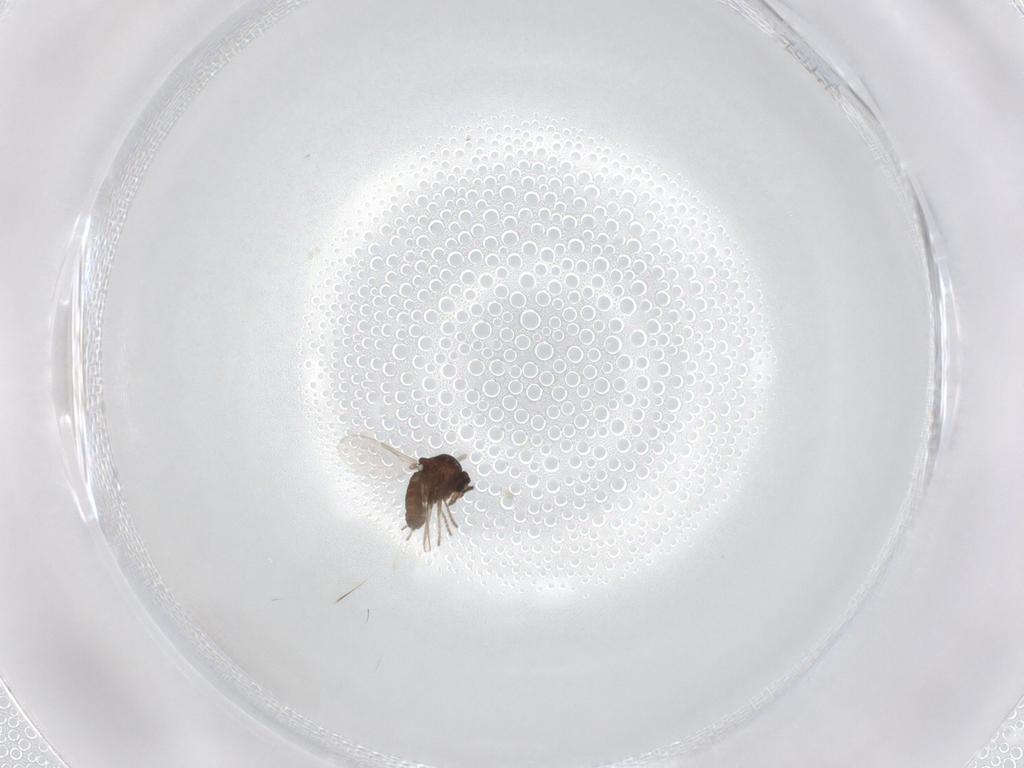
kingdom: Animalia
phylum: Arthropoda
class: Insecta
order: Diptera
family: Ceratopogonidae
